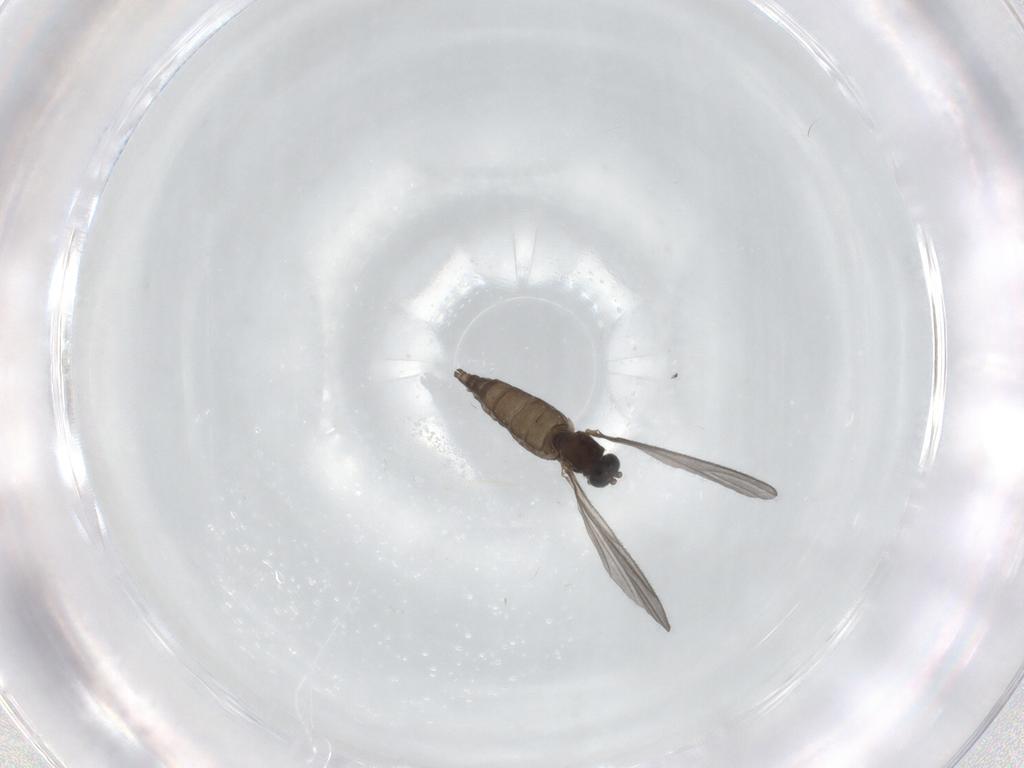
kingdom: Animalia
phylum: Arthropoda
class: Insecta
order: Diptera
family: Sciaridae
